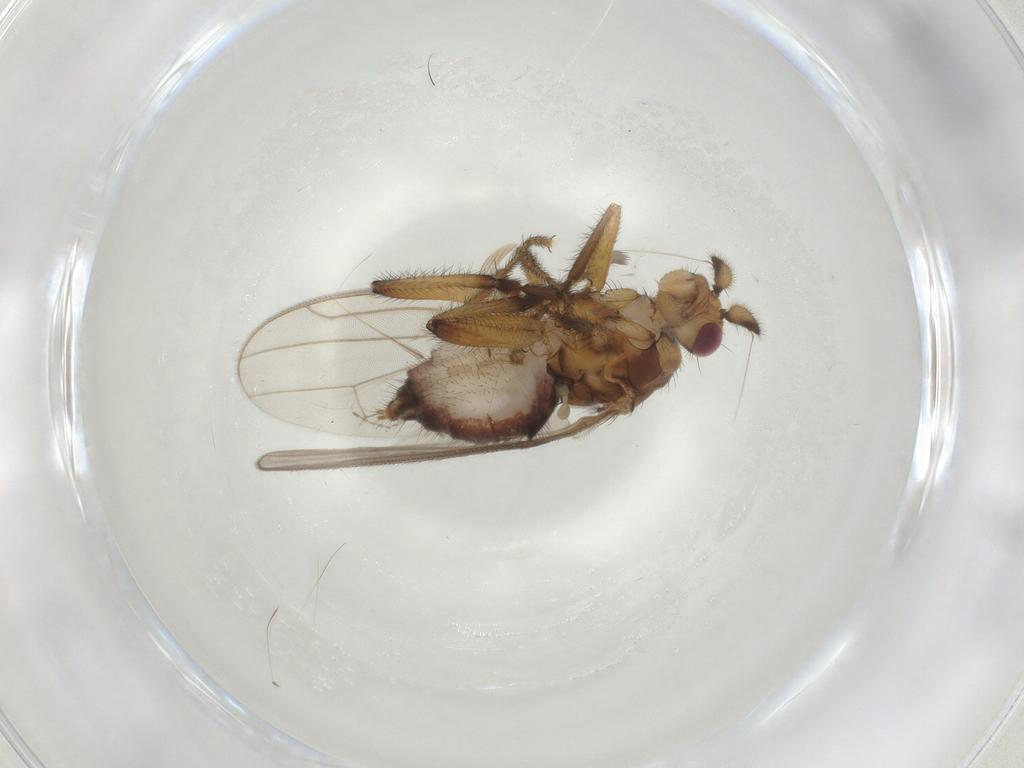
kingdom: Animalia
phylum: Arthropoda
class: Insecta
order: Diptera
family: Sphaeroceridae
